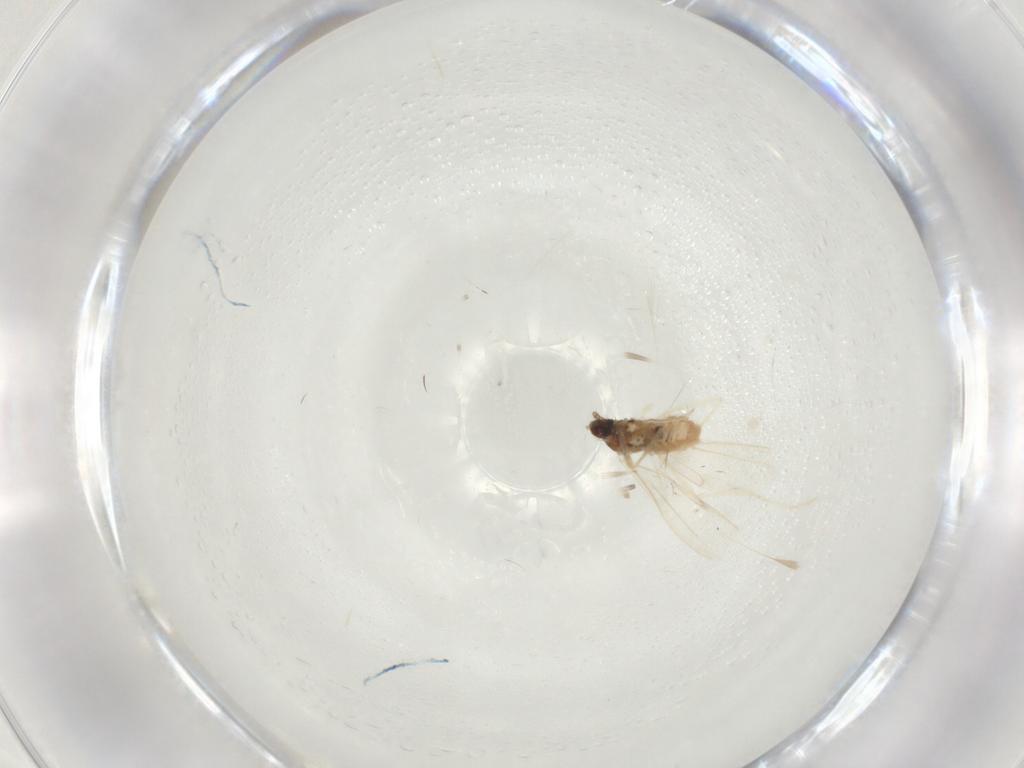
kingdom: Animalia
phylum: Arthropoda
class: Insecta
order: Diptera
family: Cecidomyiidae
